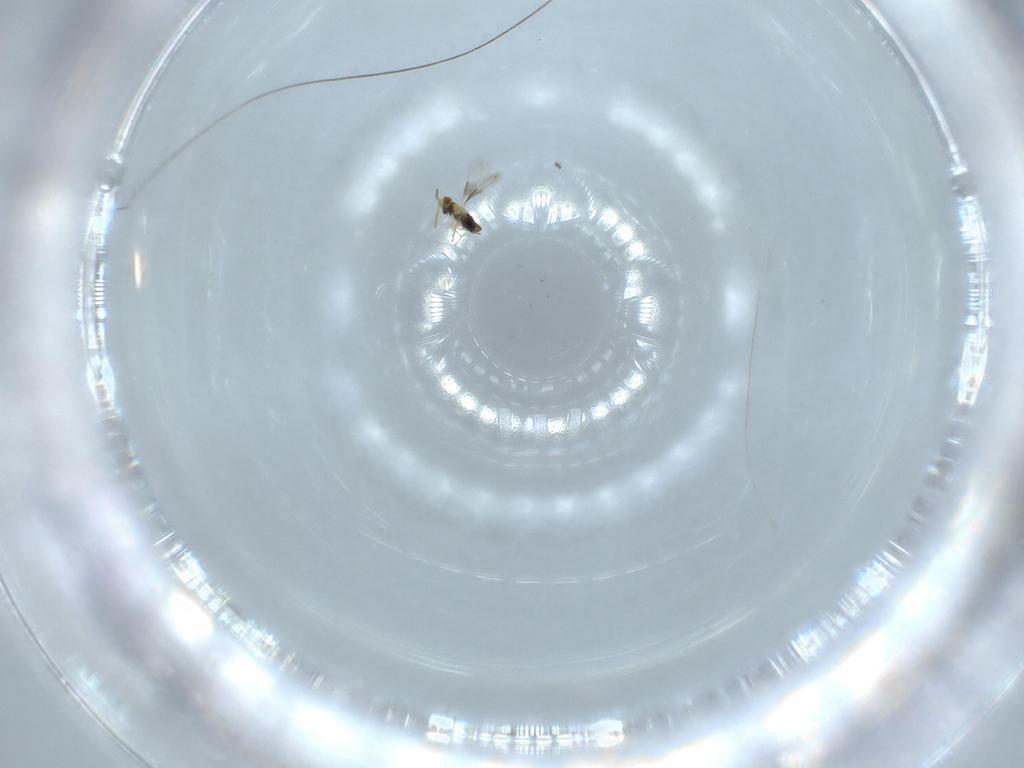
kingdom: Animalia
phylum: Arthropoda
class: Insecta
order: Hymenoptera
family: Aphelinidae
